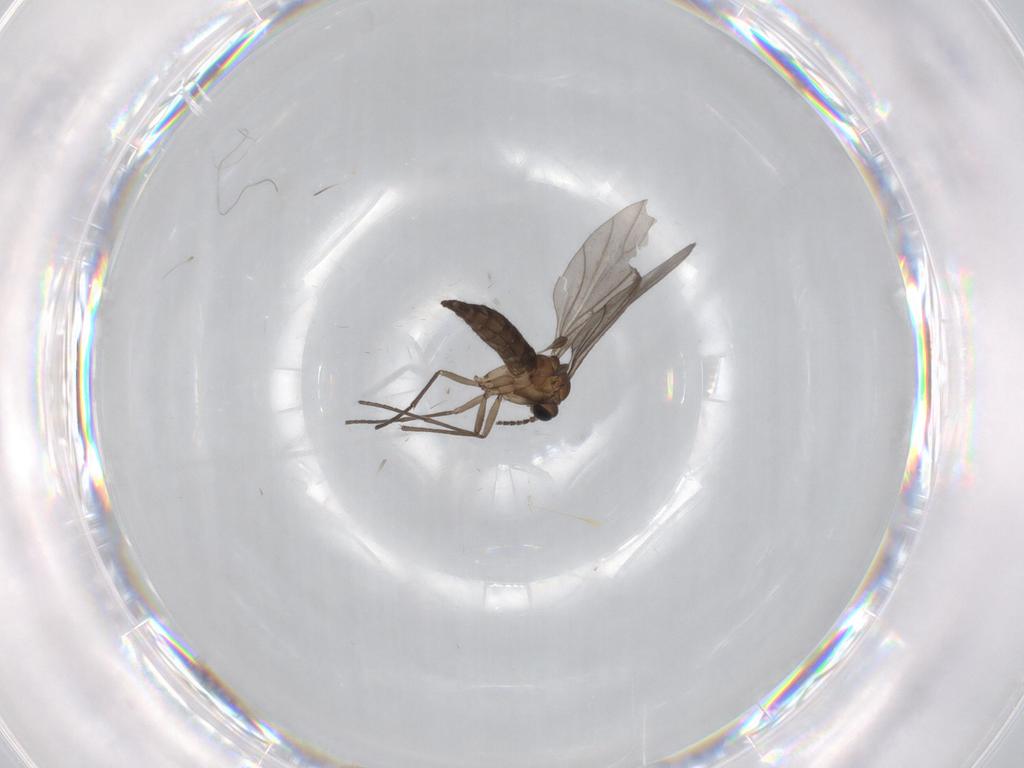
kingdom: Animalia
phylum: Arthropoda
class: Insecta
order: Diptera
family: Sciaridae
